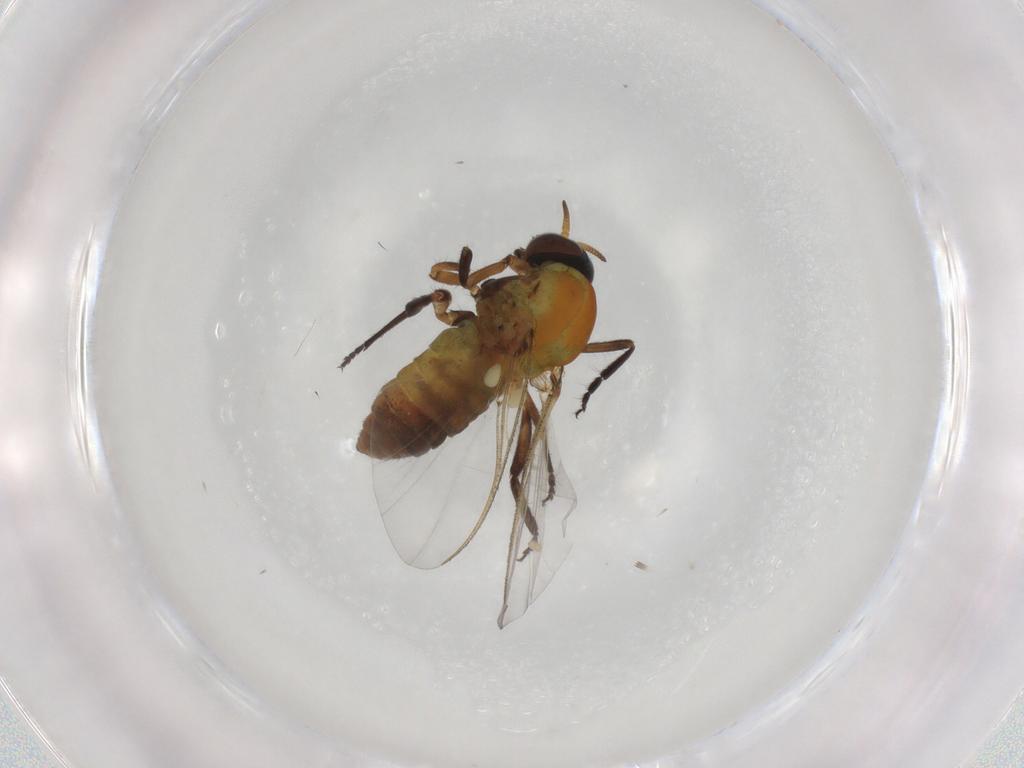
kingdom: Animalia
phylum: Arthropoda
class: Insecta
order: Diptera
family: Simuliidae
